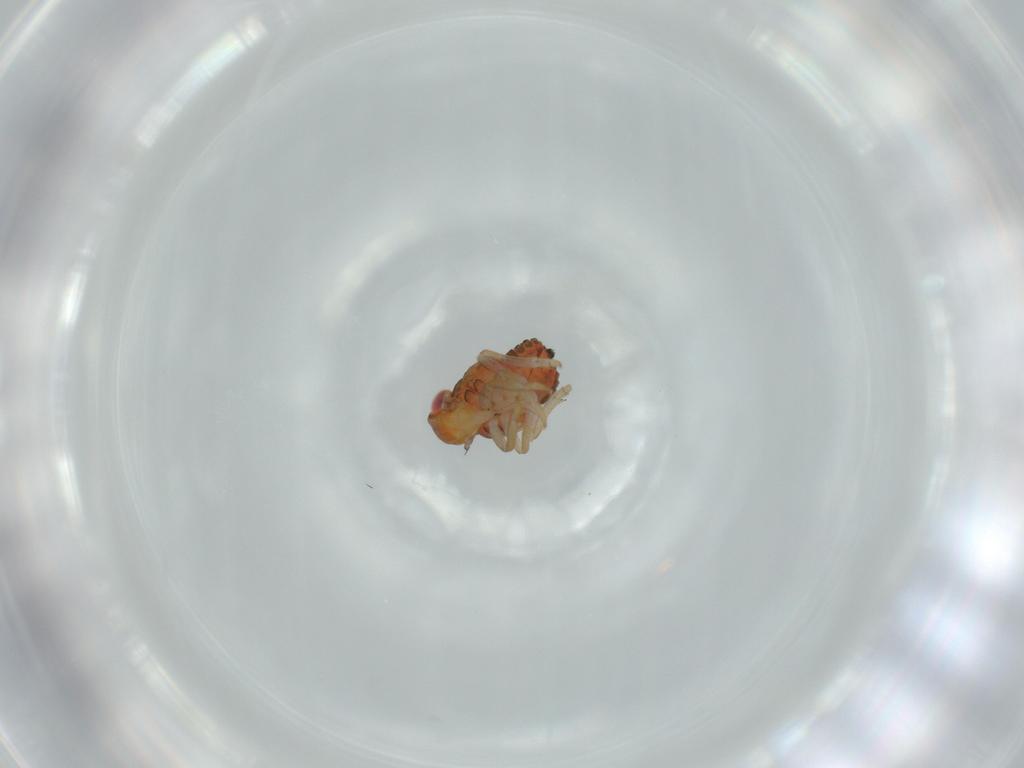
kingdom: Animalia
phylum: Arthropoda
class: Insecta
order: Hemiptera
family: Issidae
